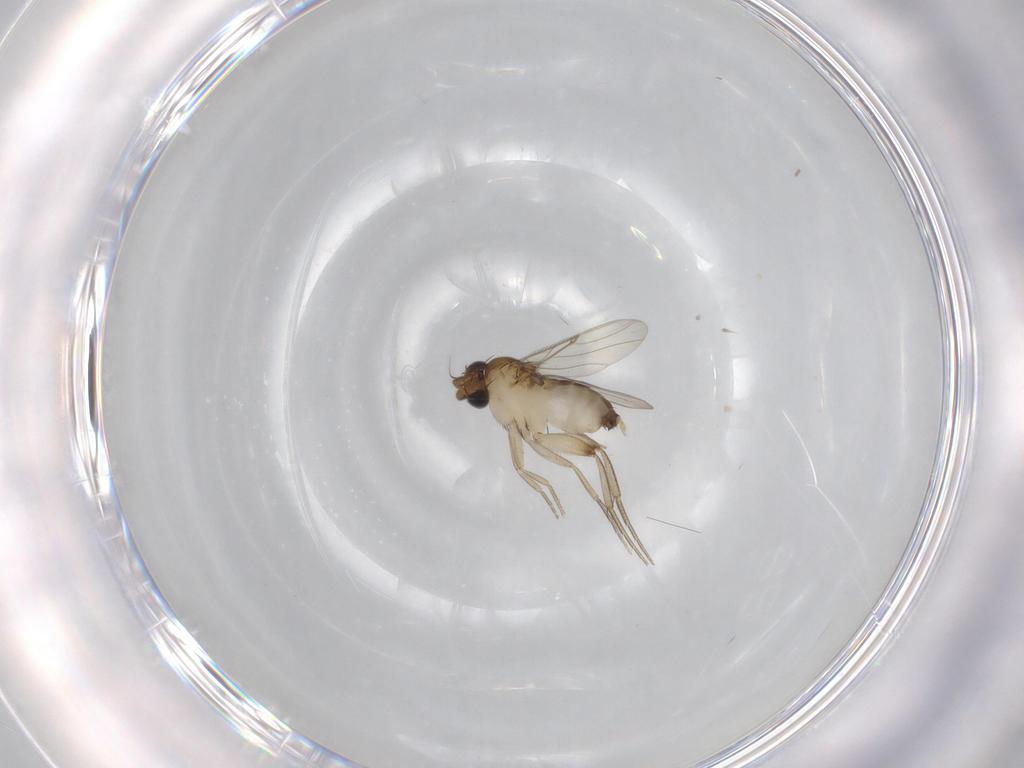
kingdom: Animalia
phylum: Arthropoda
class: Insecta
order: Diptera
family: Phoridae
